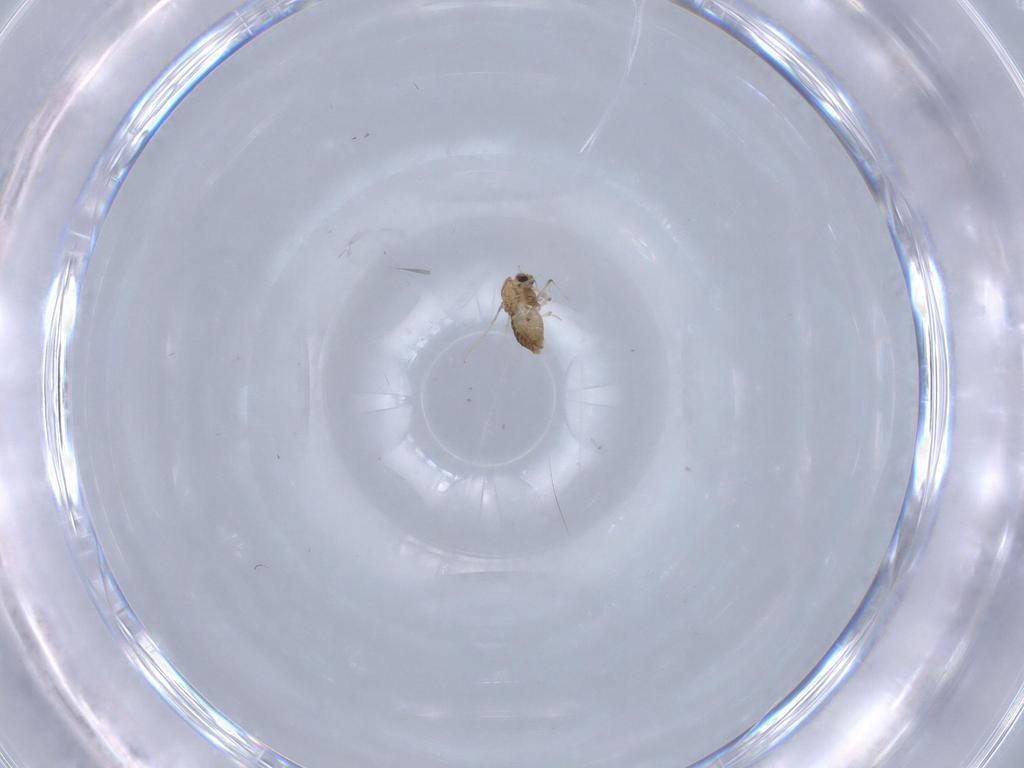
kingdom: Animalia
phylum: Arthropoda
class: Insecta
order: Diptera
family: Chironomidae
